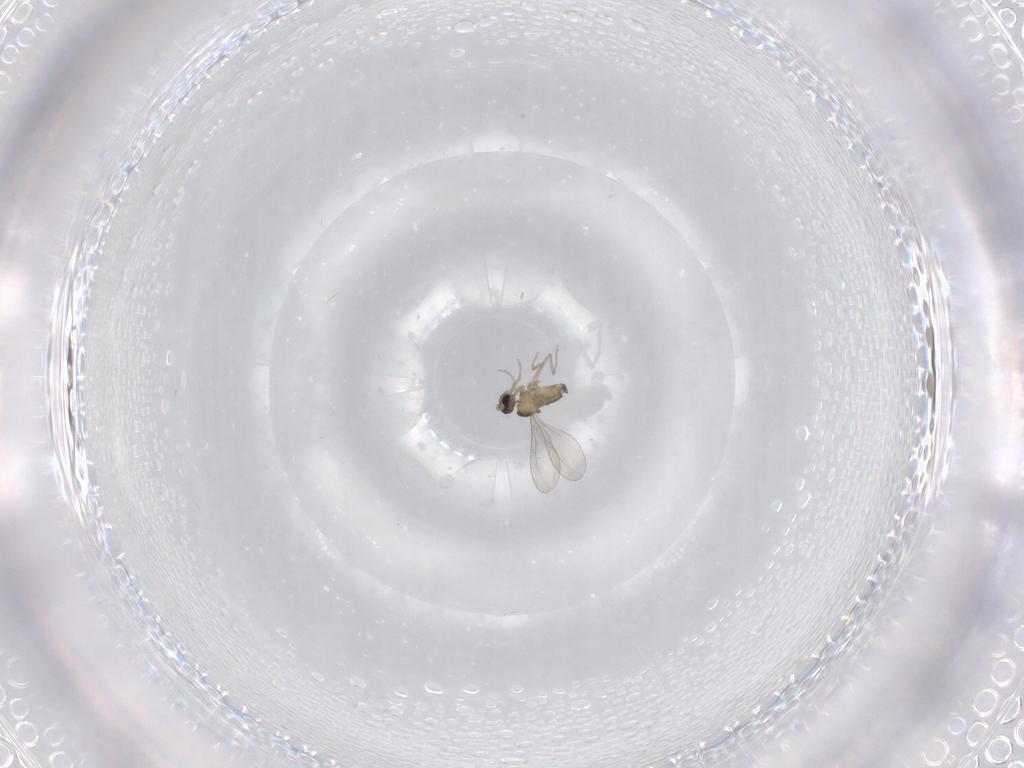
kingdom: Animalia
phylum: Arthropoda
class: Insecta
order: Diptera
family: Cecidomyiidae
